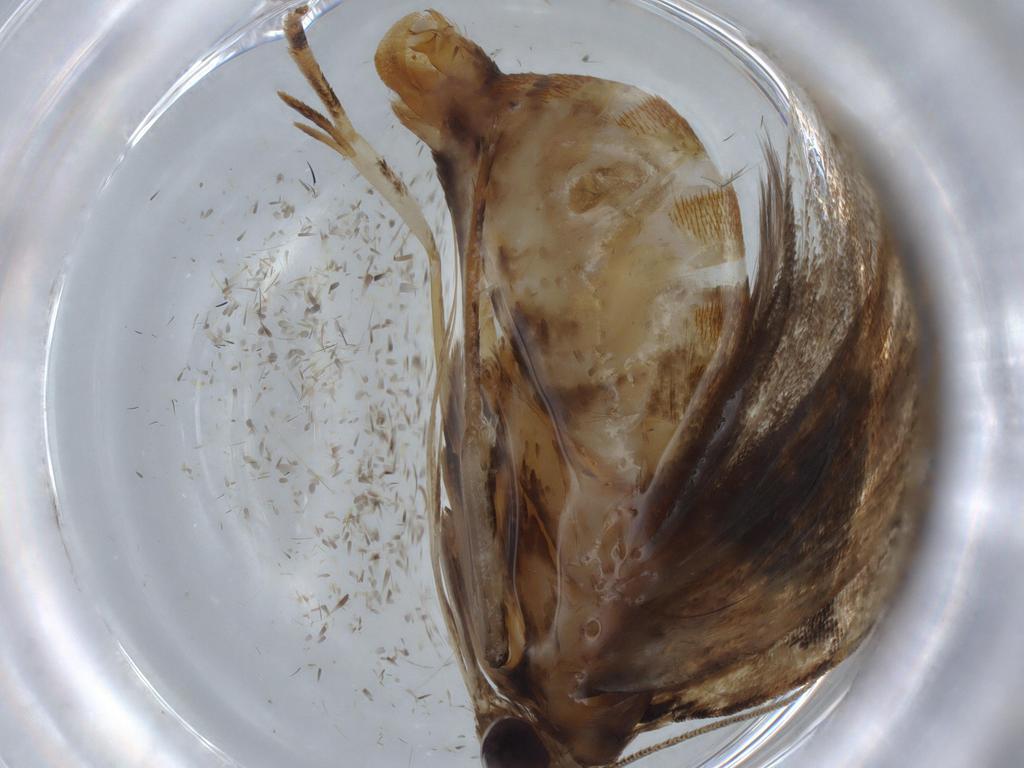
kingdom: Animalia
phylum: Arthropoda
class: Insecta
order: Lepidoptera
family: Gelechiidae
